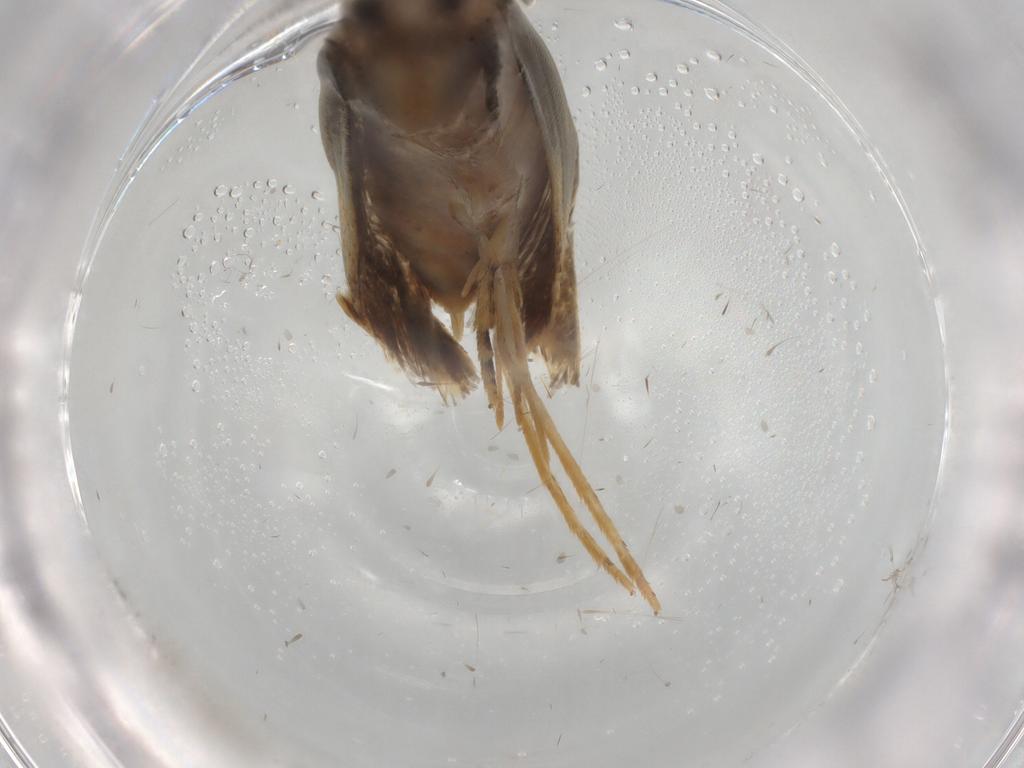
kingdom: Animalia
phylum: Arthropoda
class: Insecta
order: Lepidoptera
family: Tineidae
